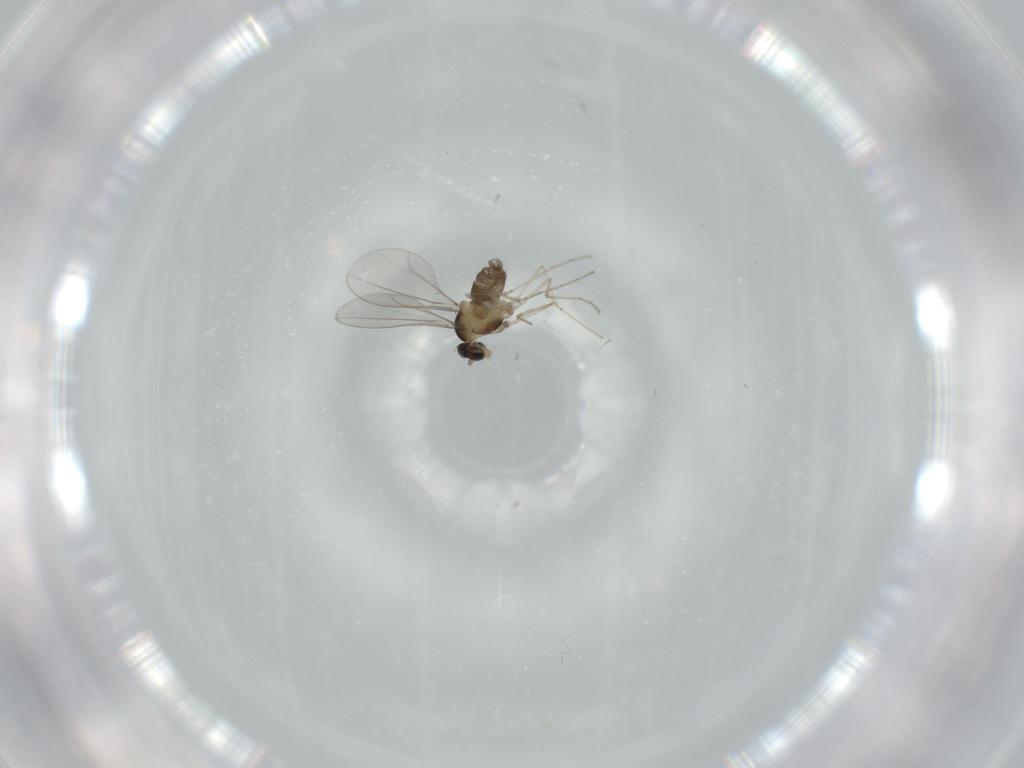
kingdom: Animalia
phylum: Arthropoda
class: Insecta
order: Diptera
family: Cecidomyiidae
